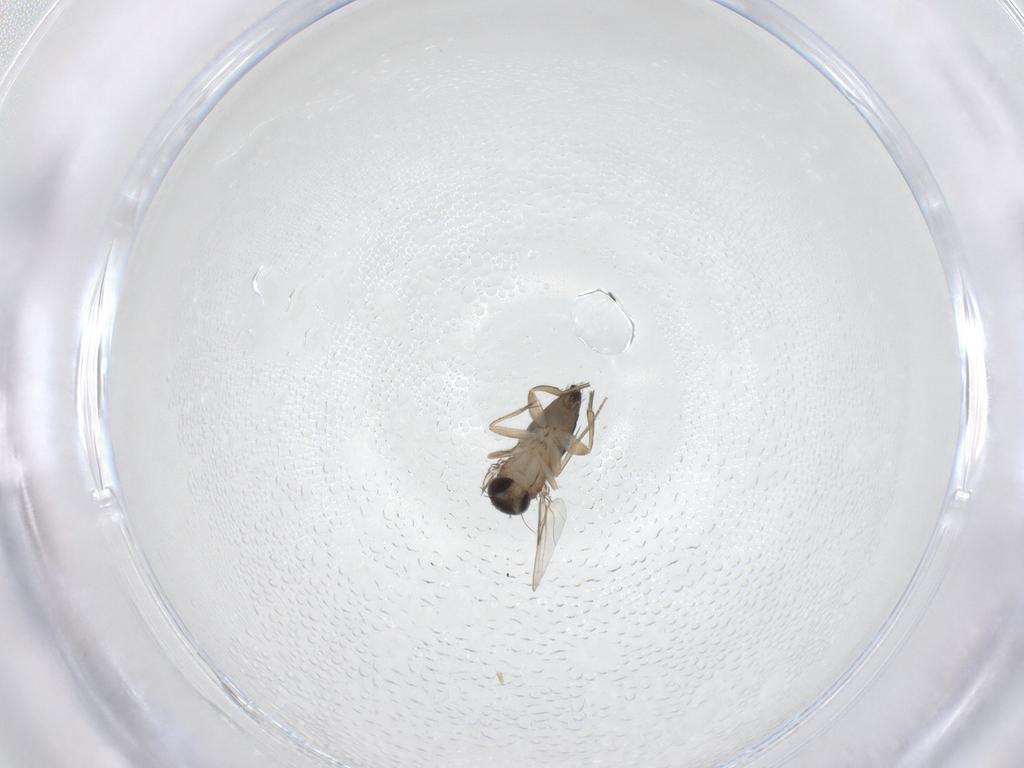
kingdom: Animalia
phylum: Arthropoda
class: Insecta
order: Diptera
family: Phoridae
